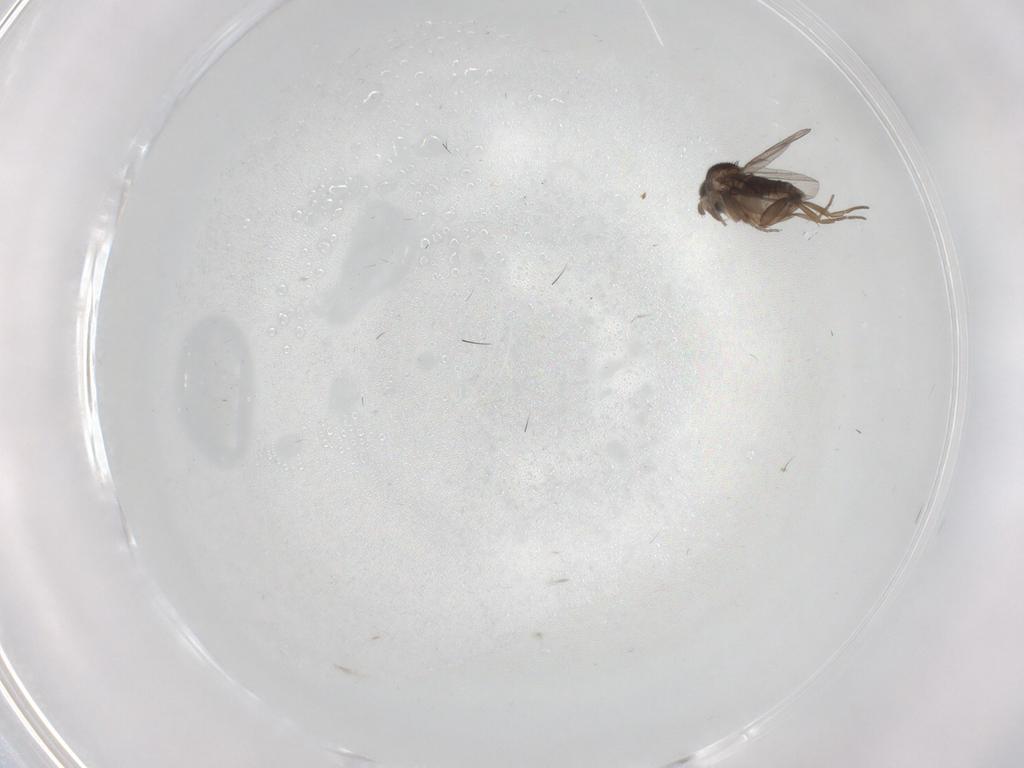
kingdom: Animalia
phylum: Arthropoda
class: Insecta
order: Diptera
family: Phoridae
